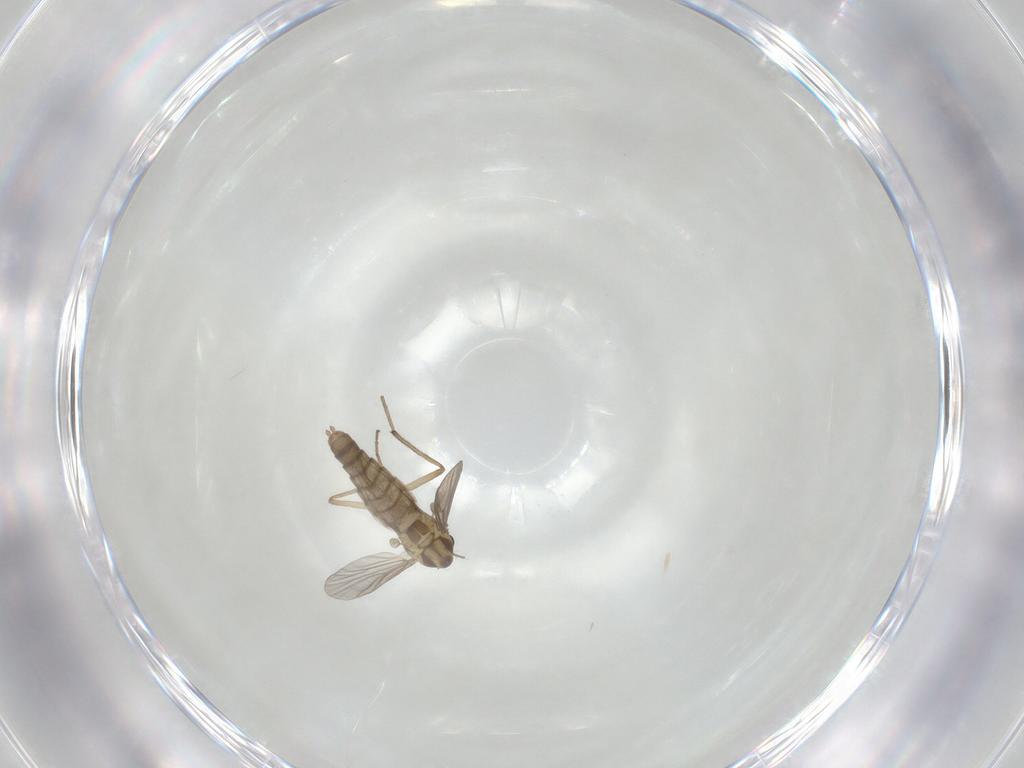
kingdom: Animalia
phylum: Arthropoda
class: Insecta
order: Diptera
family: Chironomidae
